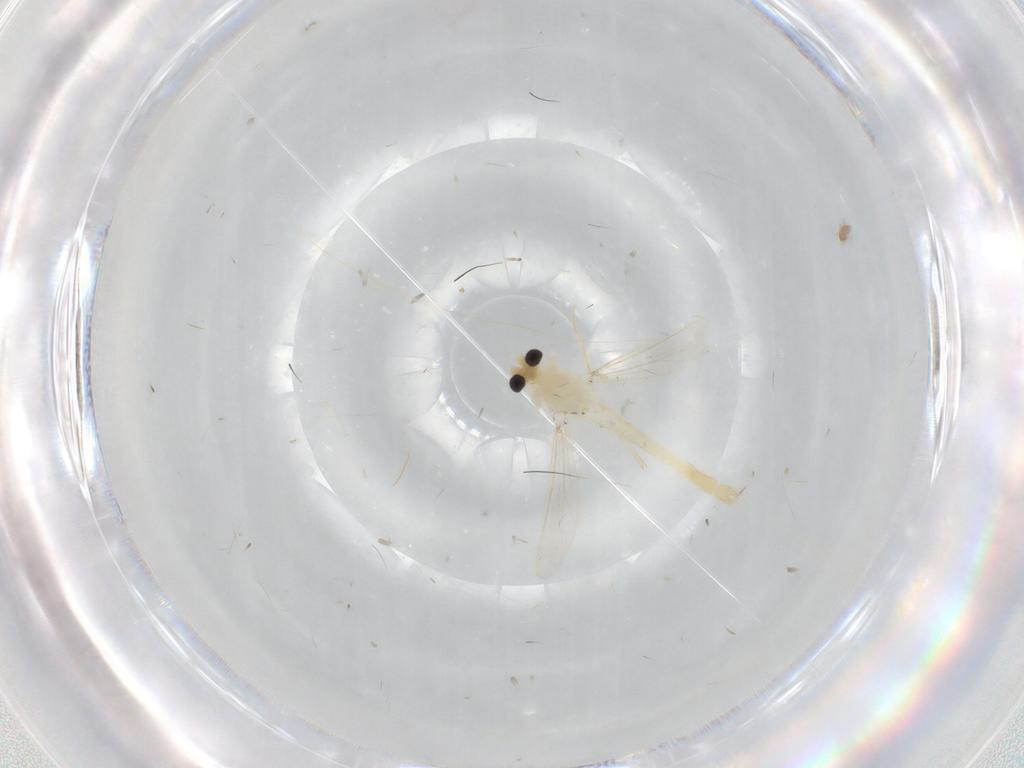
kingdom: Animalia
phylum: Arthropoda
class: Insecta
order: Diptera
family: Chironomidae
